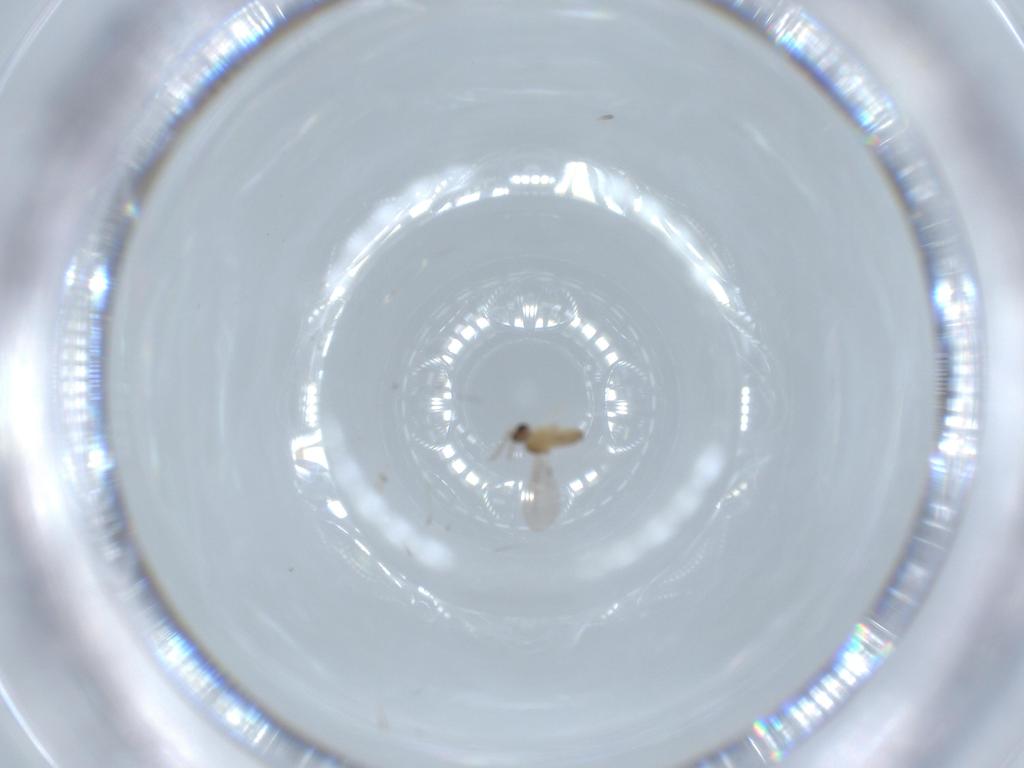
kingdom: Animalia
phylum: Arthropoda
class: Insecta
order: Diptera
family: Cecidomyiidae
